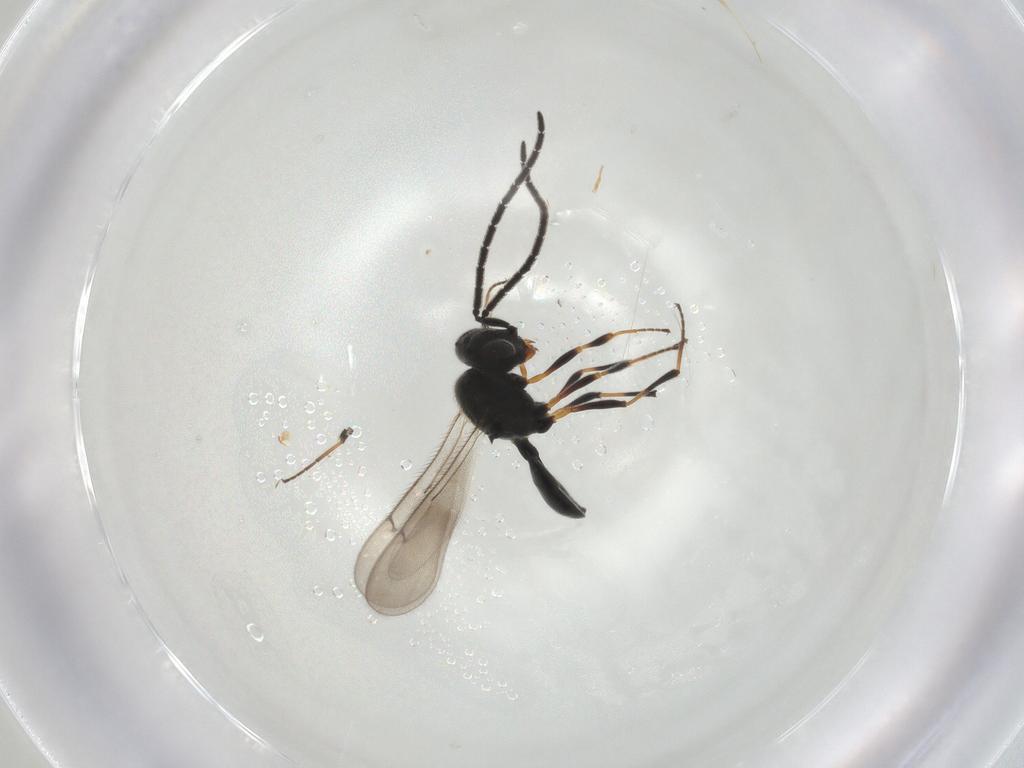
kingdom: Animalia
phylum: Arthropoda
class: Insecta
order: Hymenoptera
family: Scelionidae
